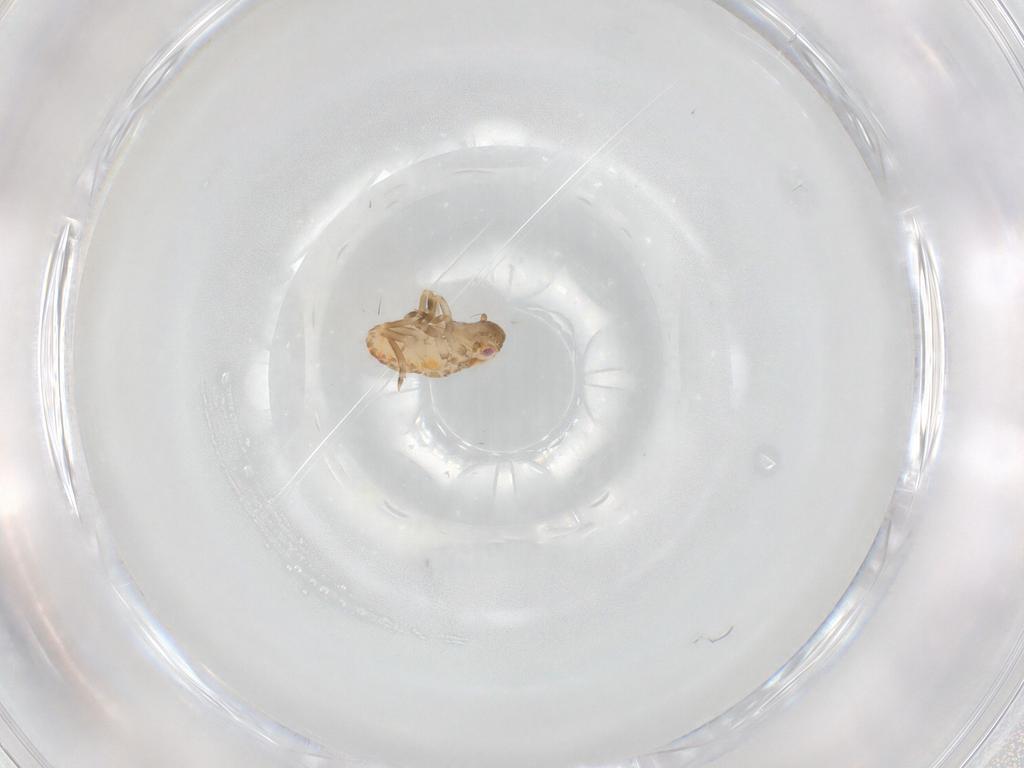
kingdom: Animalia
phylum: Arthropoda
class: Insecta
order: Hemiptera
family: Flatidae
